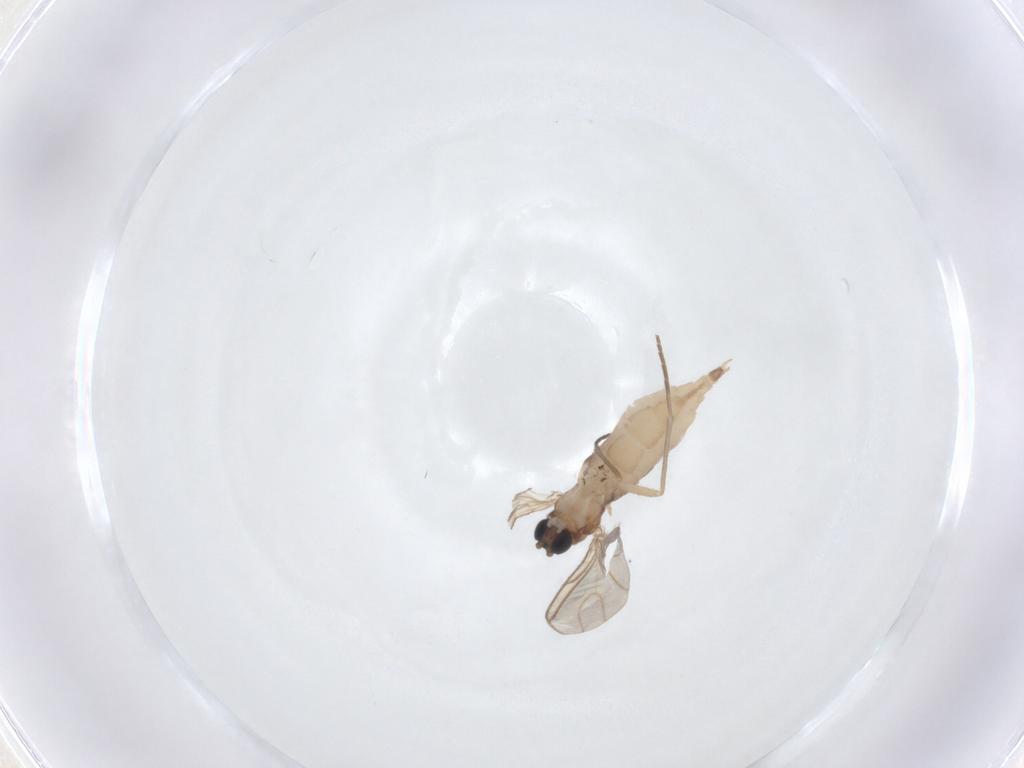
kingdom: Animalia
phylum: Arthropoda
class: Insecta
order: Diptera
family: Sciaridae
